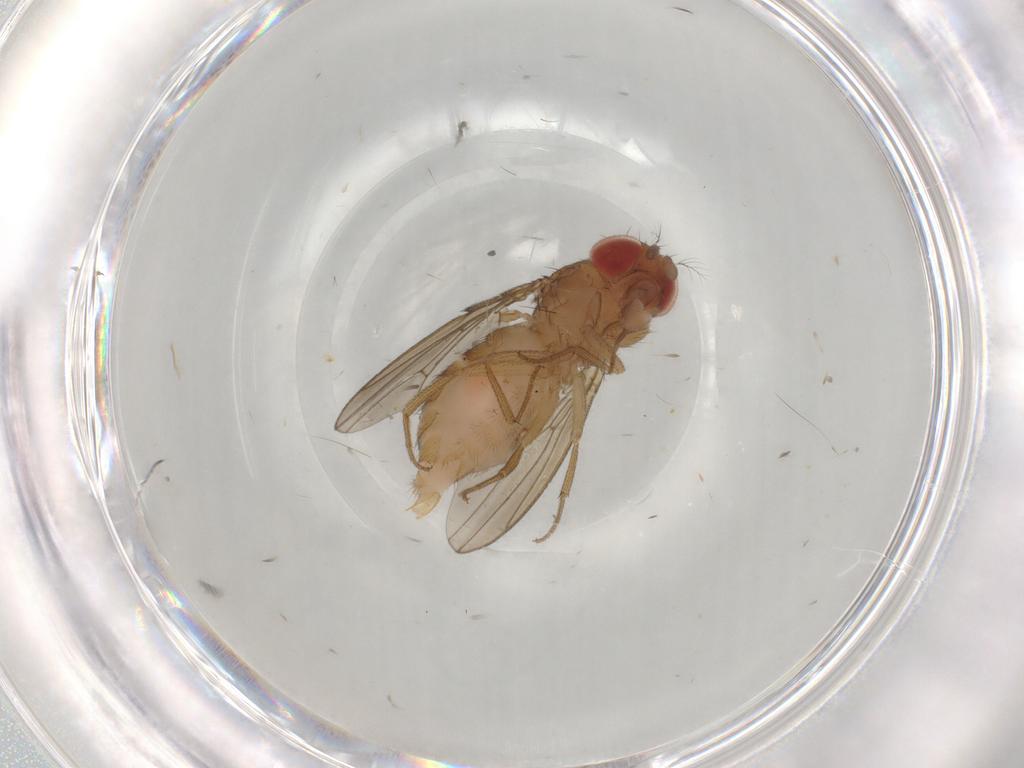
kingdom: Animalia
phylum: Arthropoda
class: Insecta
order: Diptera
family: Drosophilidae
